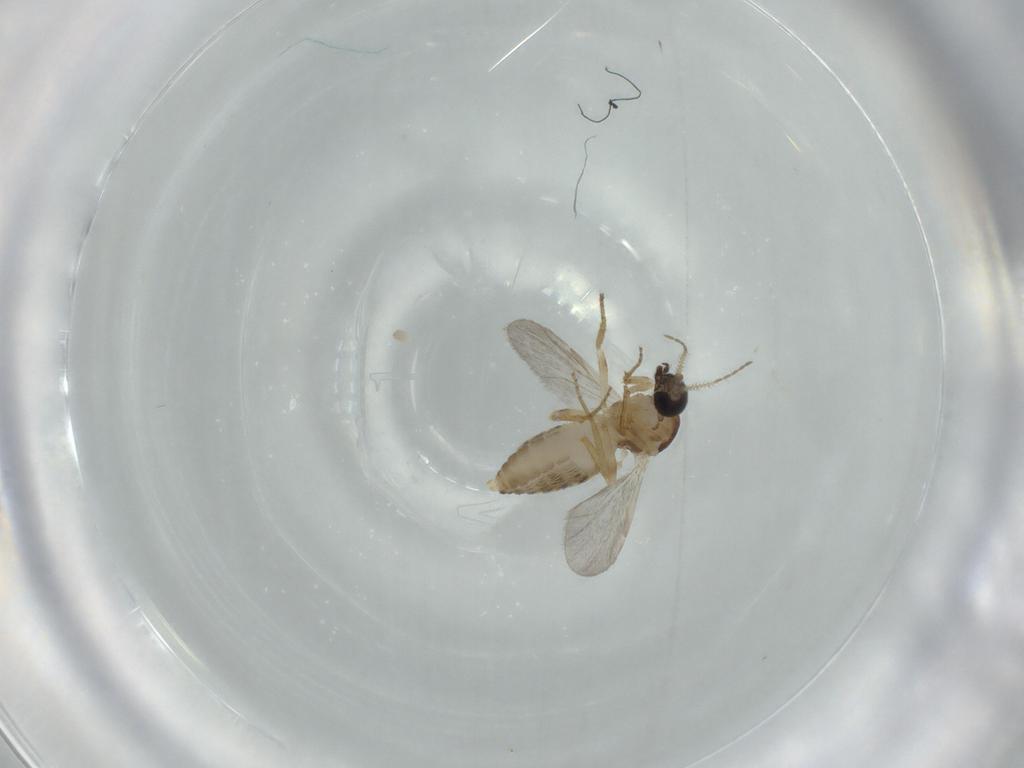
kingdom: Animalia
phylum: Arthropoda
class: Insecta
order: Diptera
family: Ceratopogonidae
